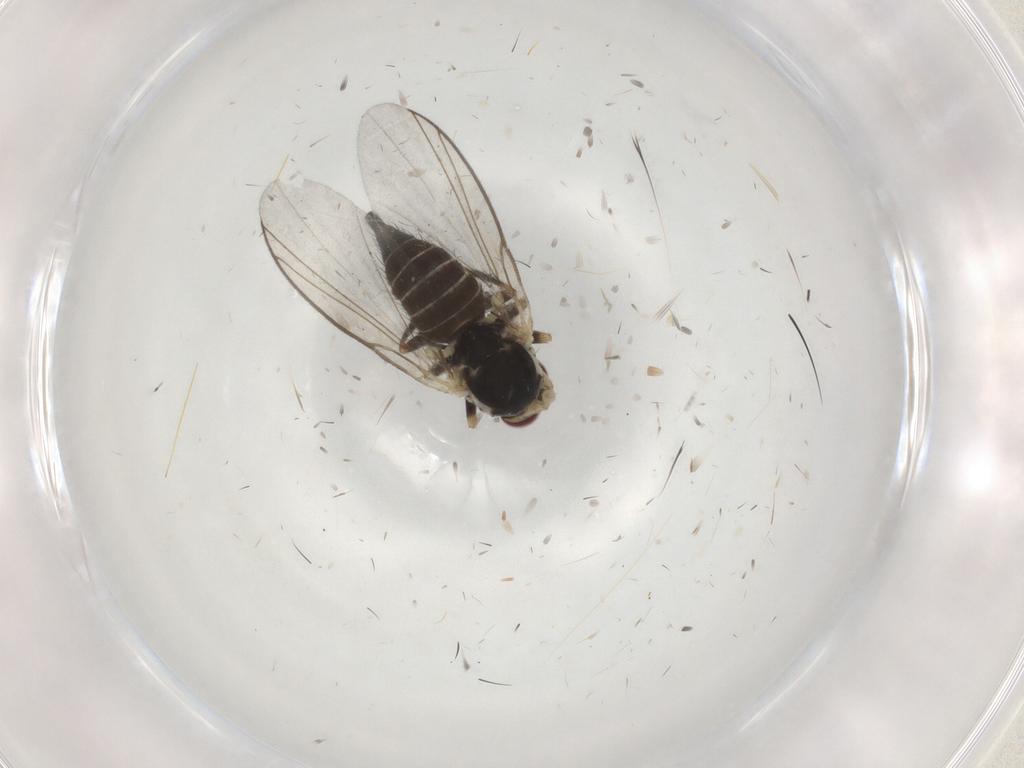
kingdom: Animalia
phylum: Arthropoda
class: Insecta
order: Diptera
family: Agromyzidae
